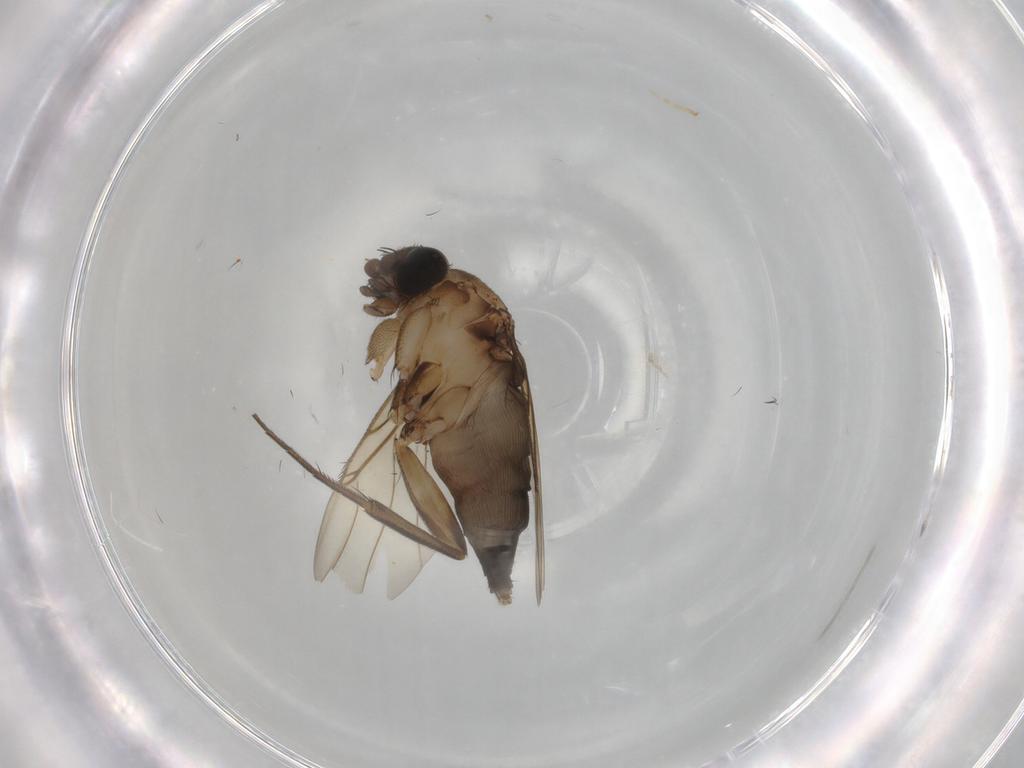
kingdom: Animalia
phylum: Arthropoda
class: Insecta
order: Diptera
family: Phoridae
